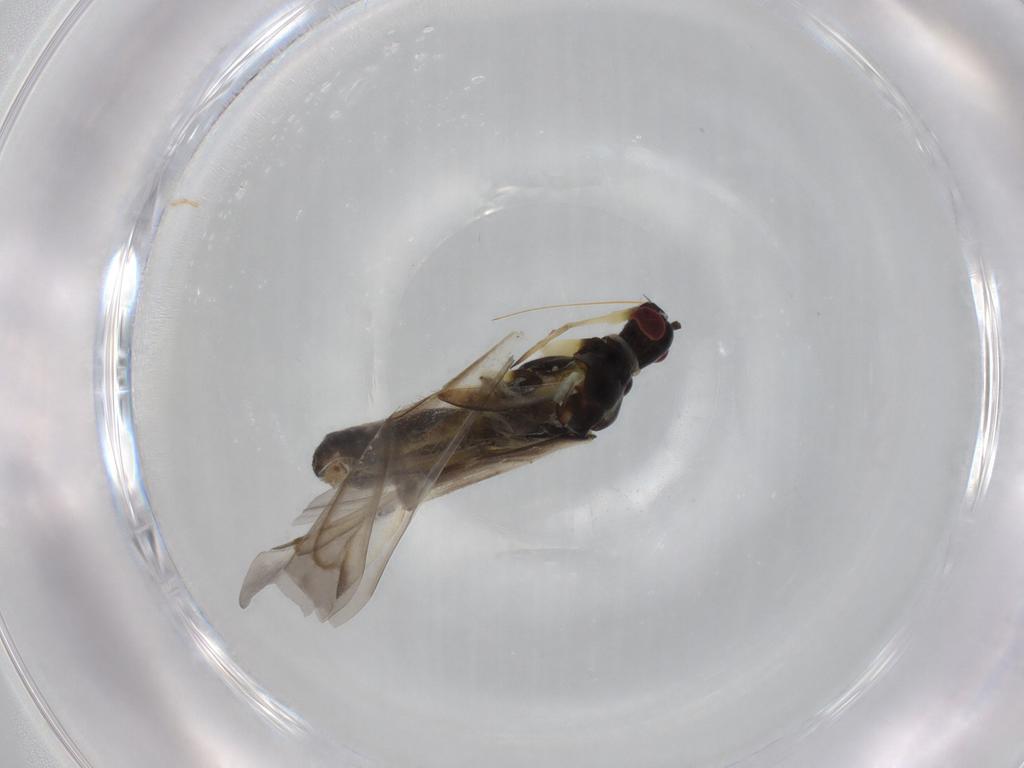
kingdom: Animalia
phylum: Arthropoda
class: Insecta
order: Hemiptera
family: Miridae
